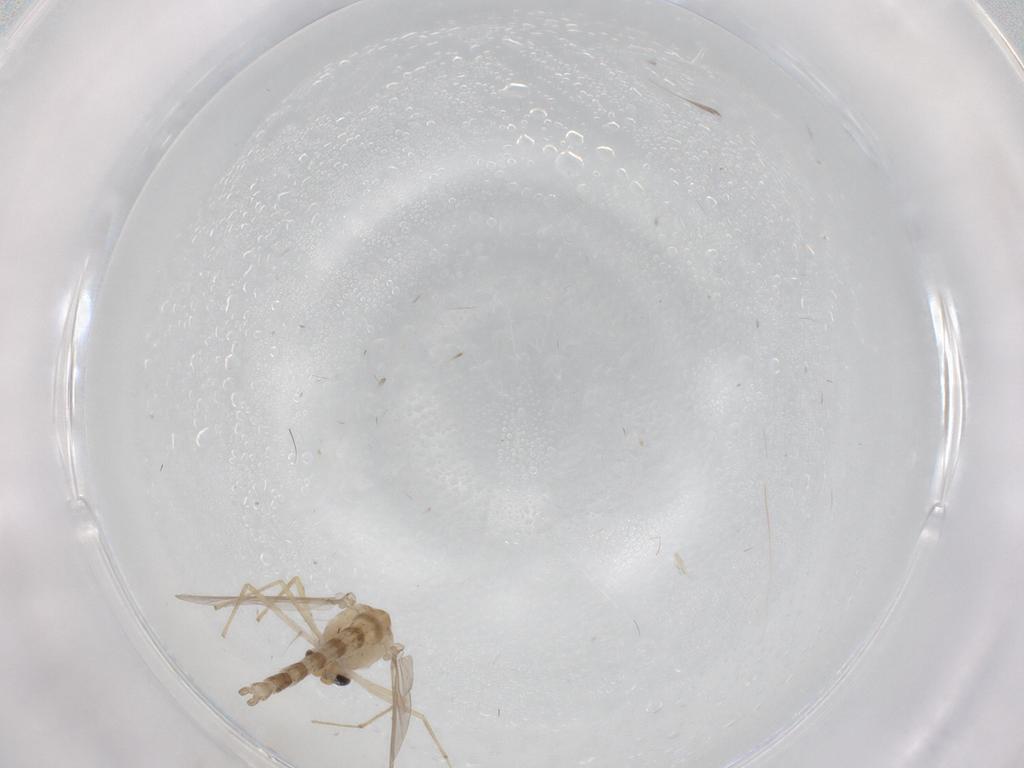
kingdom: Animalia
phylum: Arthropoda
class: Insecta
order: Diptera
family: Chironomidae
